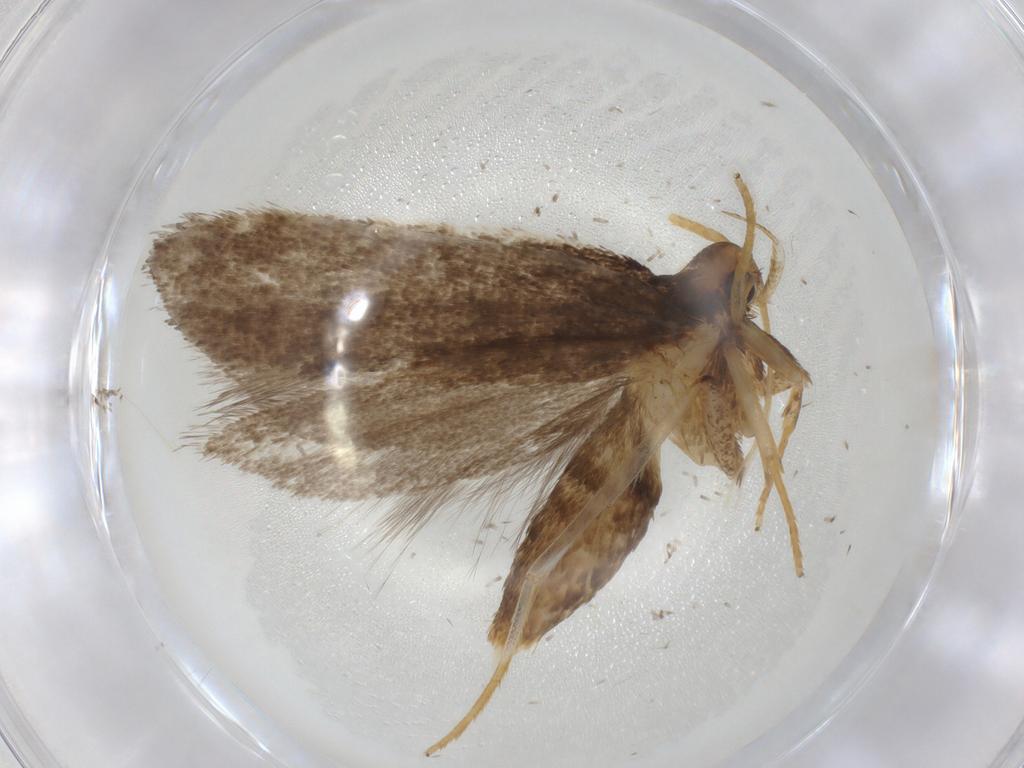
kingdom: Animalia
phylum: Arthropoda
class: Insecta
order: Lepidoptera
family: Lecithoceridae
